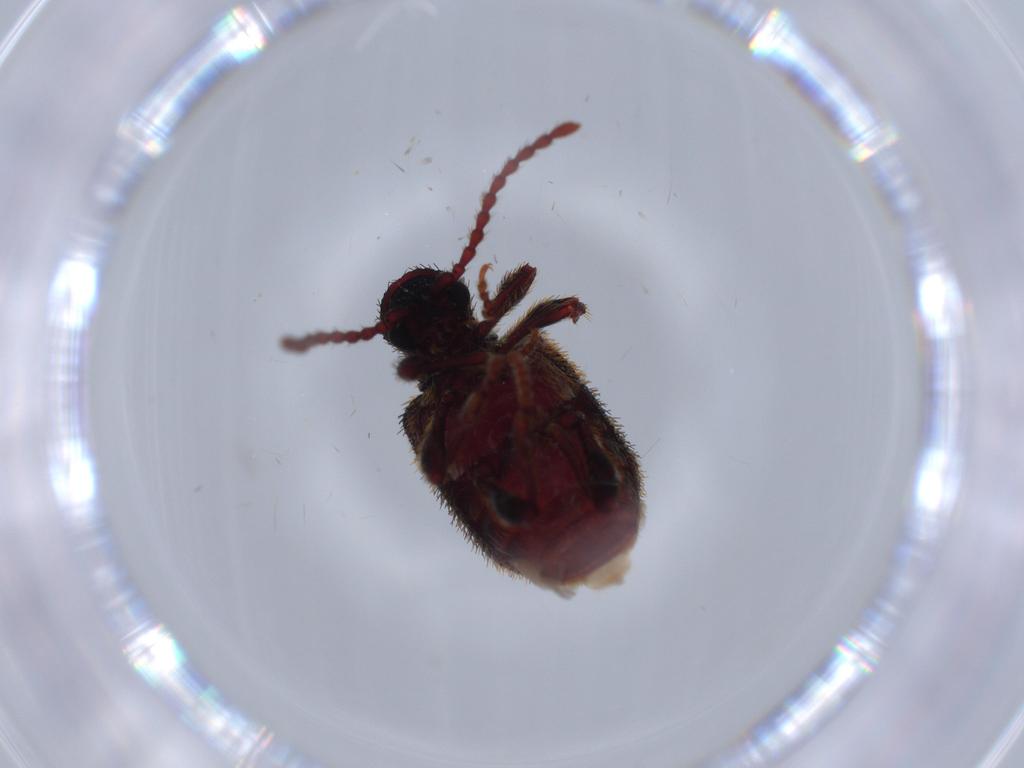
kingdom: Animalia
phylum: Arthropoda
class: Insecta
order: Coleoptera
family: Ptinidae
